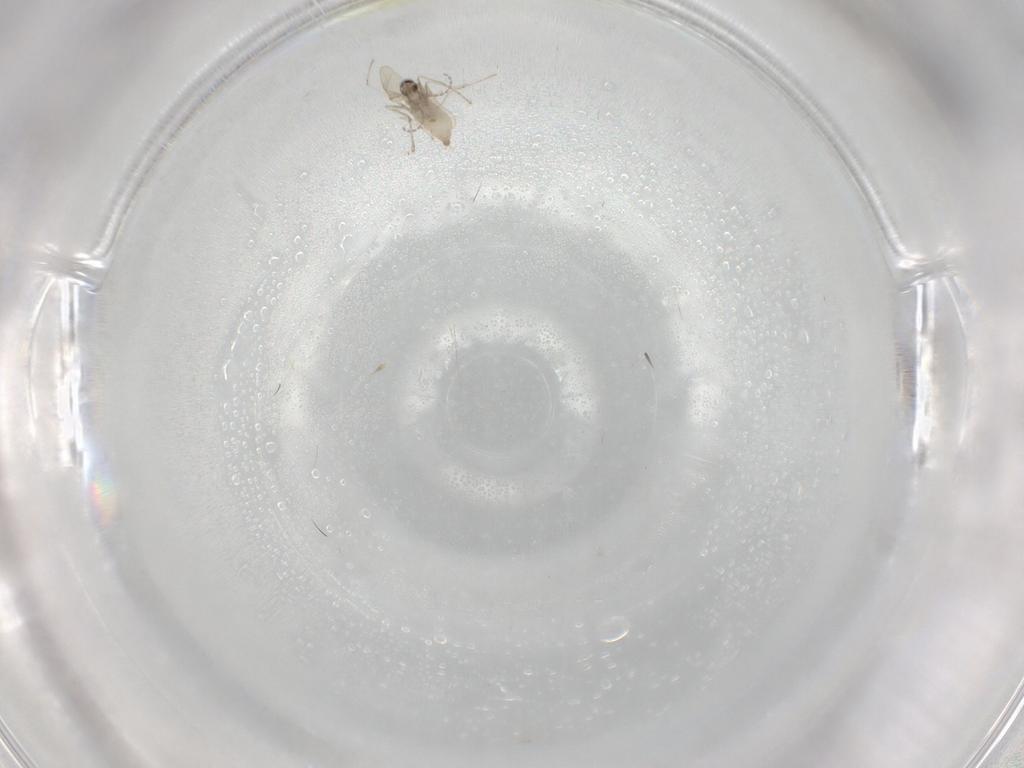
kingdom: Animalia
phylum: Arthropoda
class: Insecta
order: Diptera
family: Cecidomyiidae
